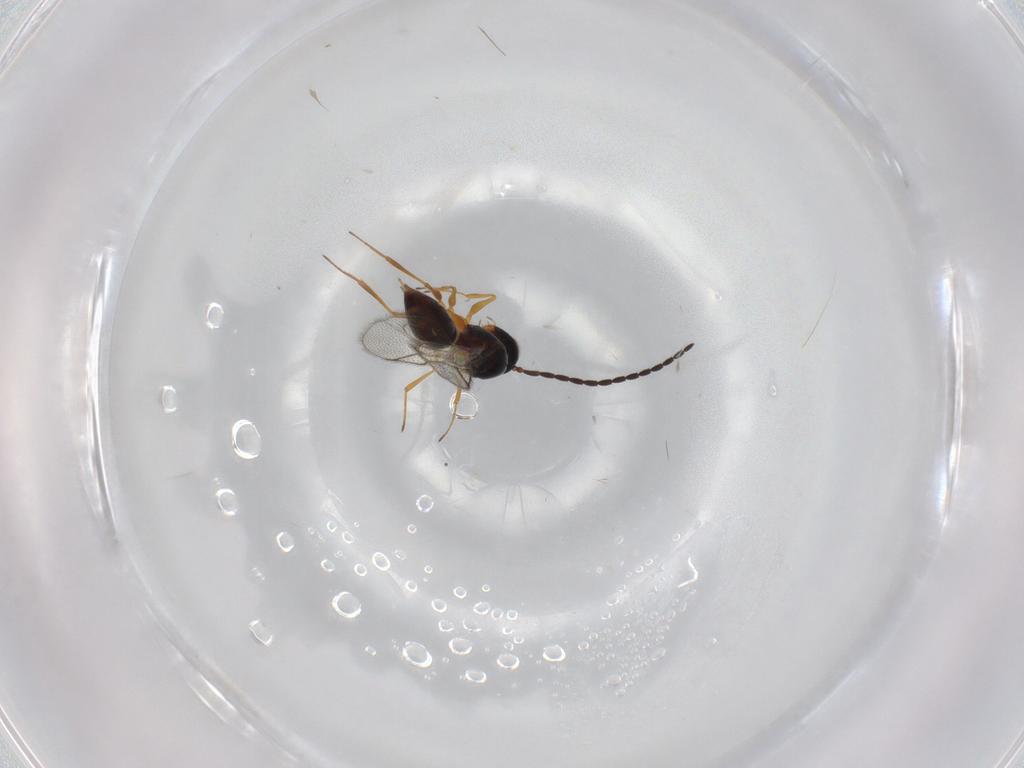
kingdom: Animalia
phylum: Arthropoda
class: Insecta
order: Hymenoptera
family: Figitidae
